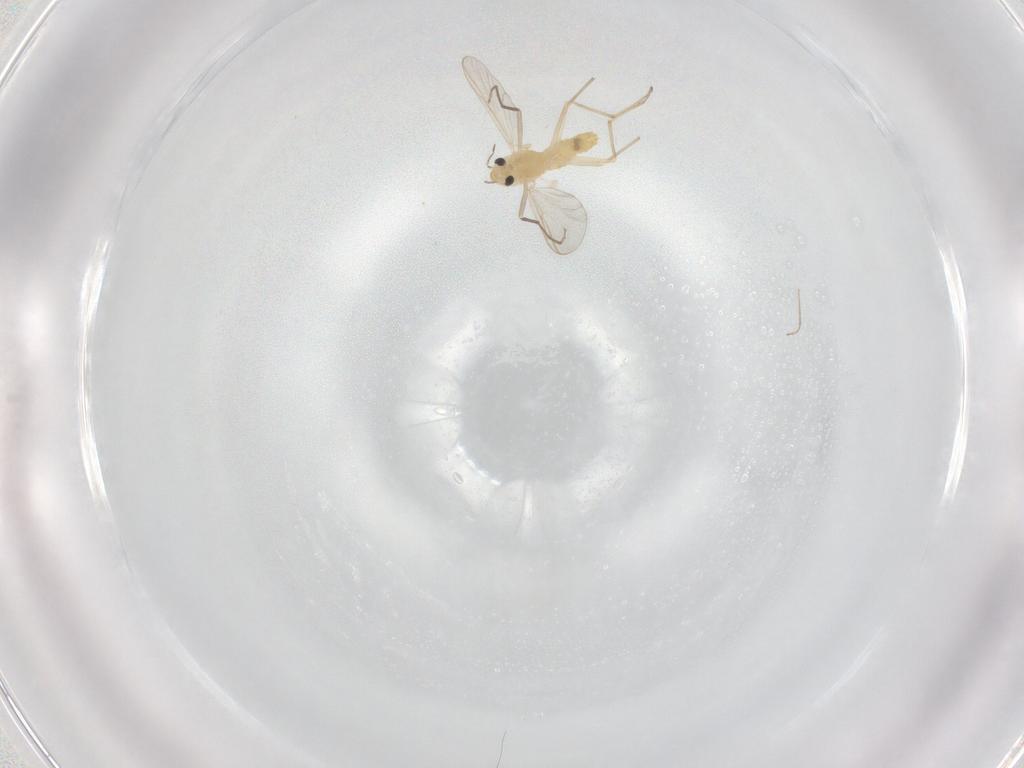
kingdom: Animalia
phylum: Arthropoda
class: Insecta
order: Diptera
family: Chironomidae
